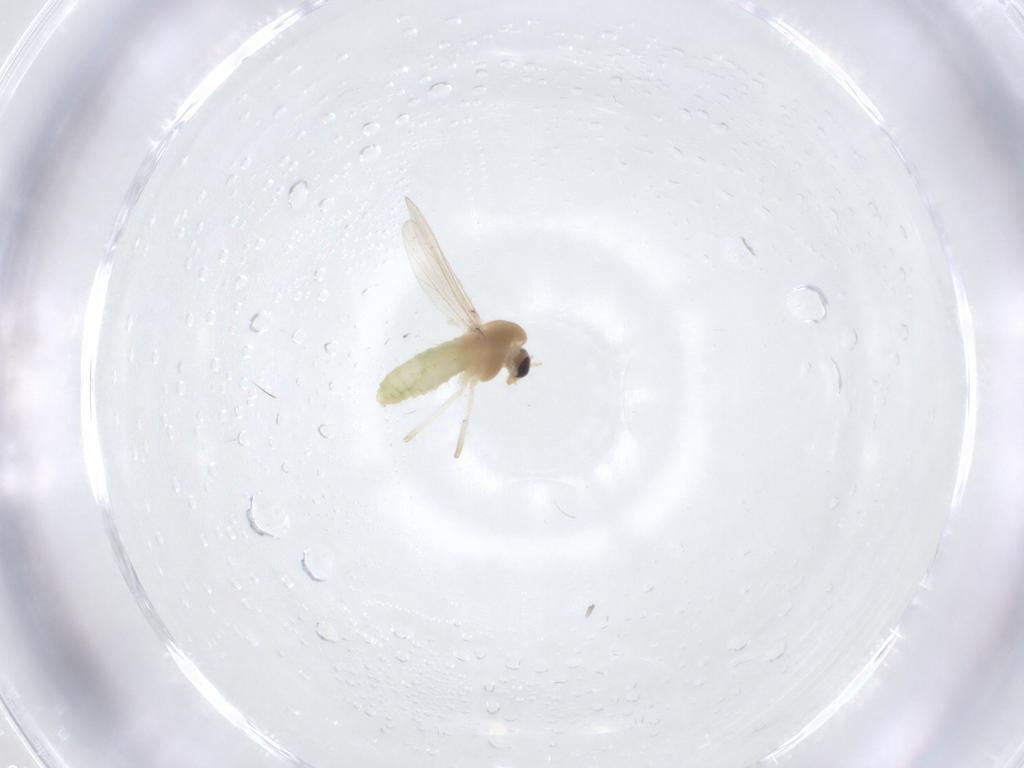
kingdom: Animalia
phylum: Arthropoda
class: Insecta
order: Diptera
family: Chironomidae
